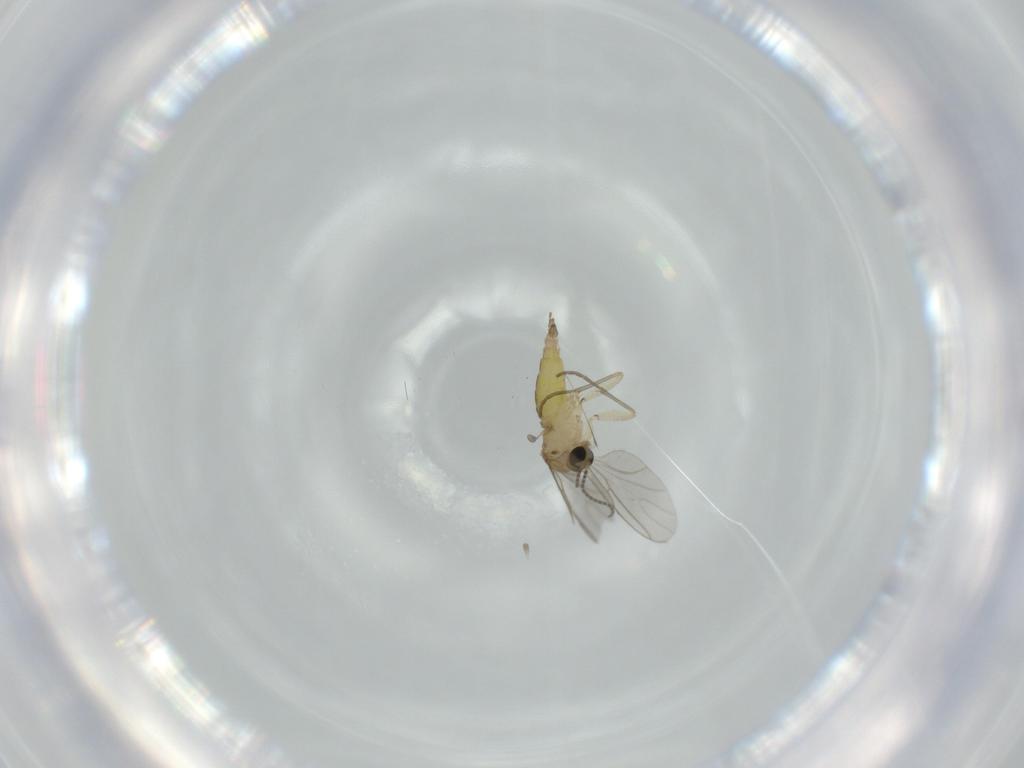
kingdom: Animalia
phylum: Arthropoda
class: Insecta
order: Diptera
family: Sciaridae
